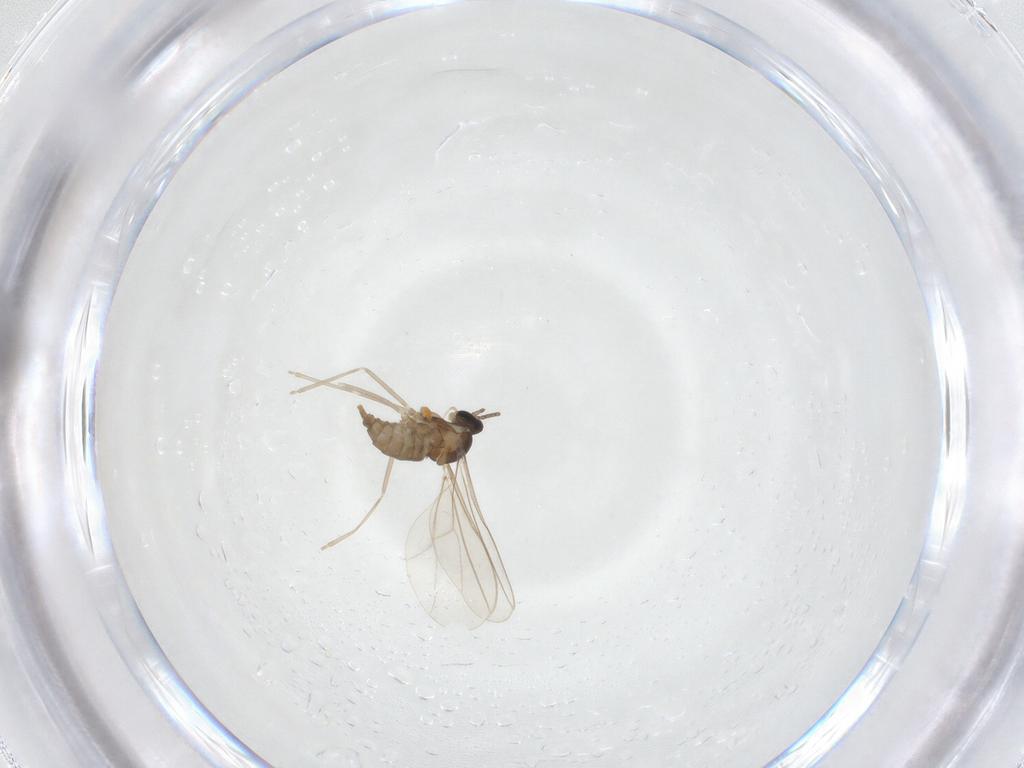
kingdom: Animalia
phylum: Arthropoda
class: Insecta
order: Diptera
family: Cecidomyiidae
